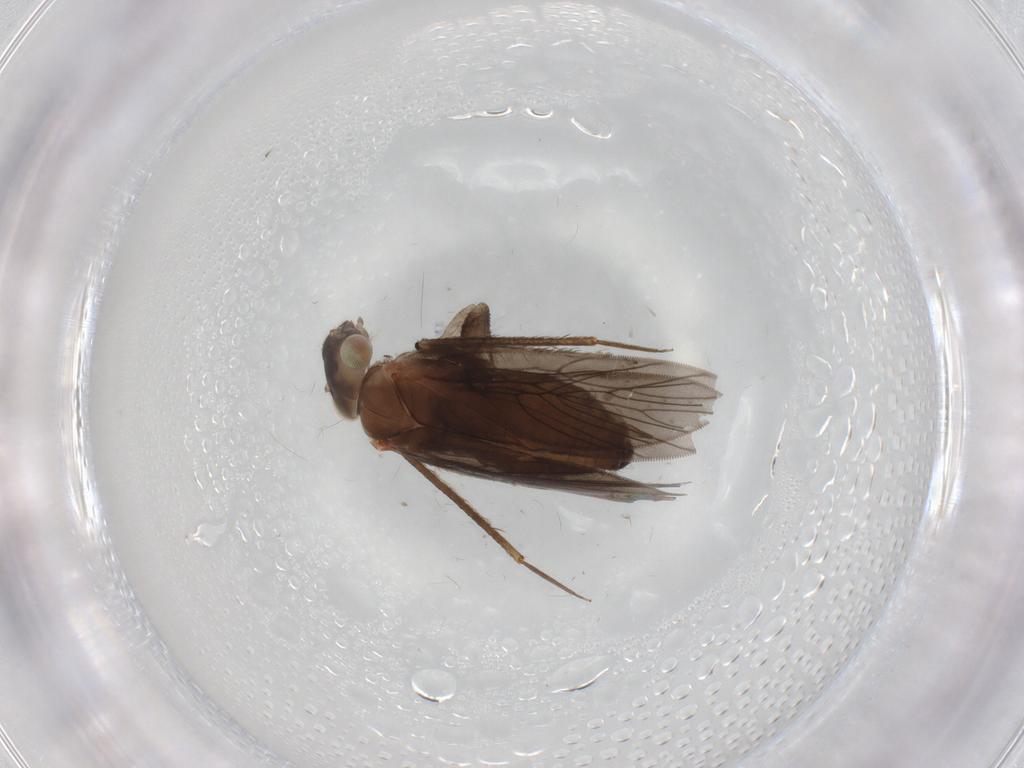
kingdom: Animalia
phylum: Arthropoda
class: Insecta
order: Psocodea
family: Lepidopsocidae
